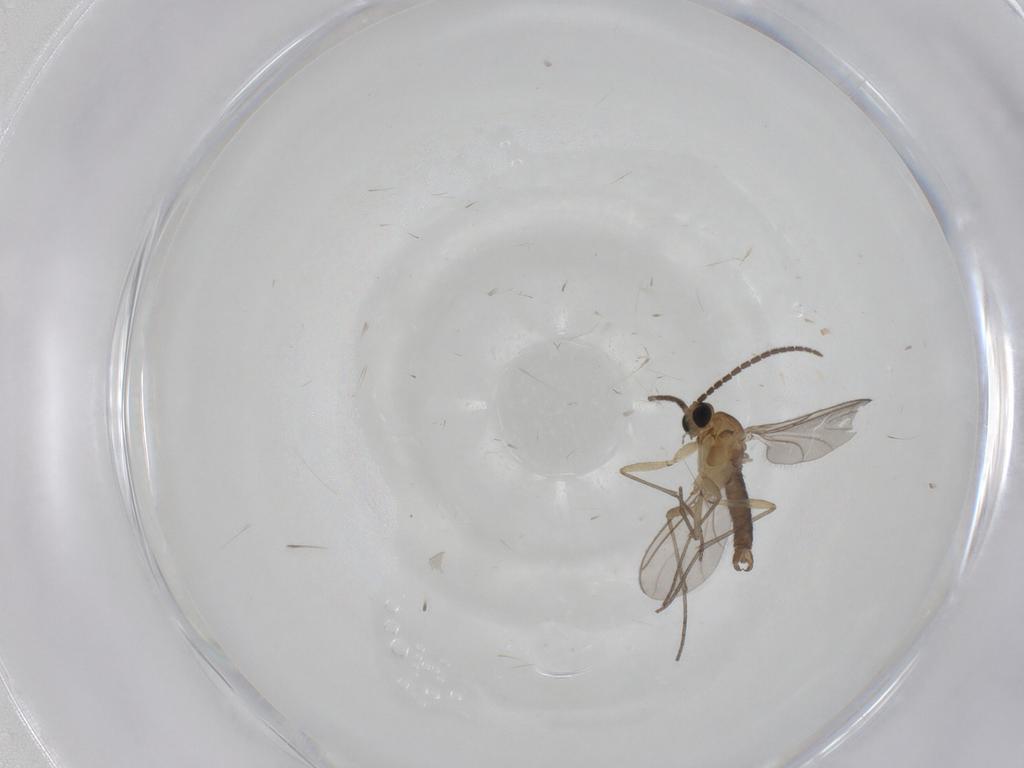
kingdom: Animalia
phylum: Arthropoda
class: Insecta
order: Diptera
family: Sciaridae
